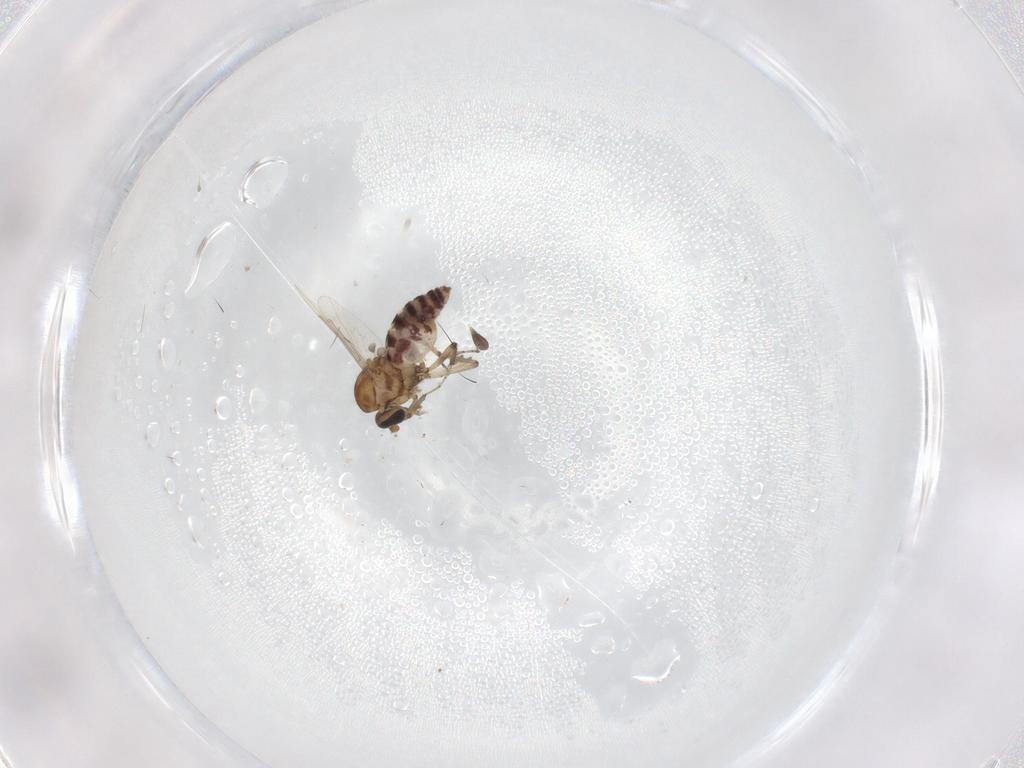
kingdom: Animalia
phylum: Arthropoda
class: Insecta
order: Diptera
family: Ceratopogonidae
